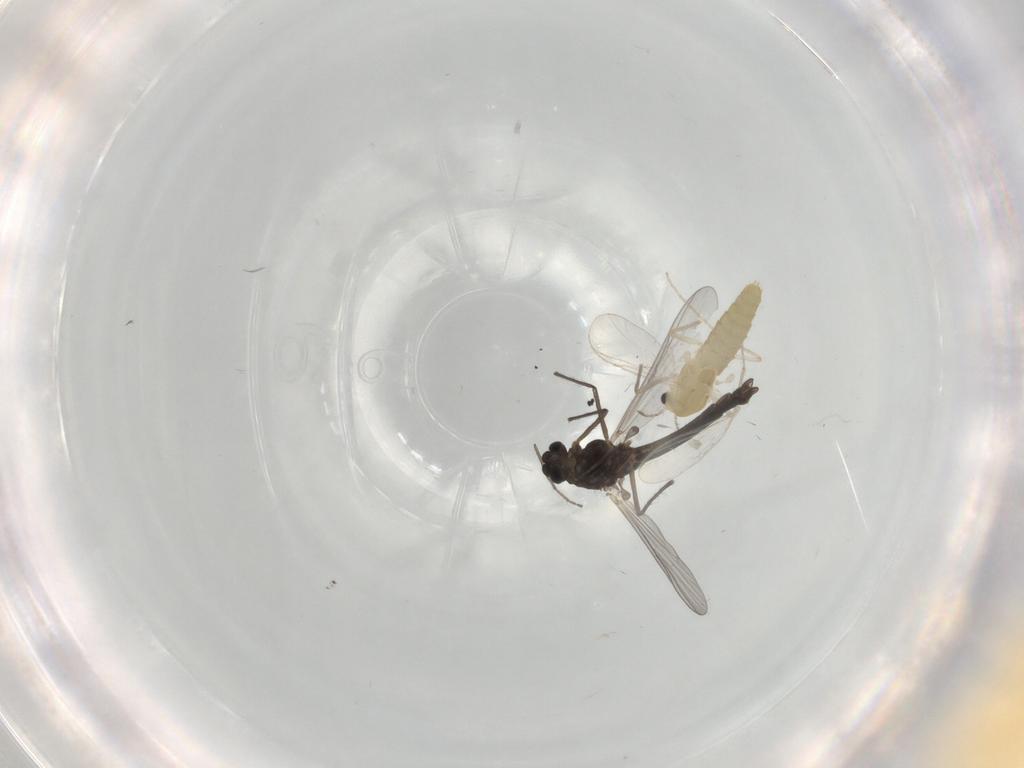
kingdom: Animalia
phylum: Arthropoda
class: Insecta
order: Diptera
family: Chironomidae
